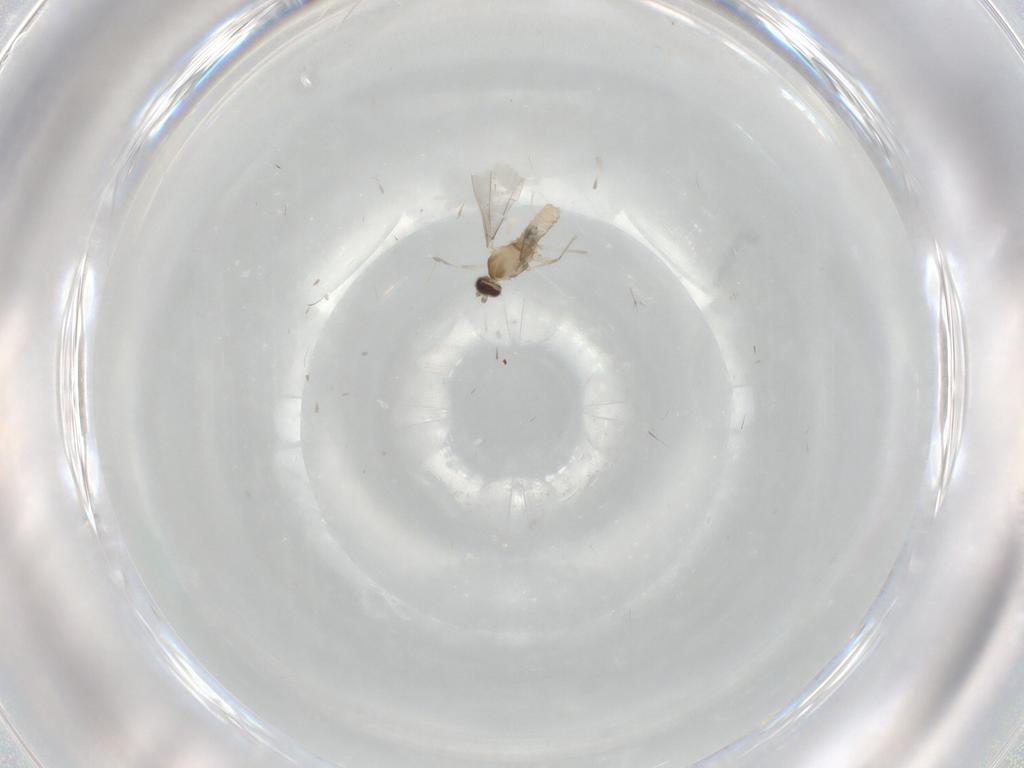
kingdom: Animalia
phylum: Arthropoda
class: Insecta
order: Diptera
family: Cecidomyiidae
